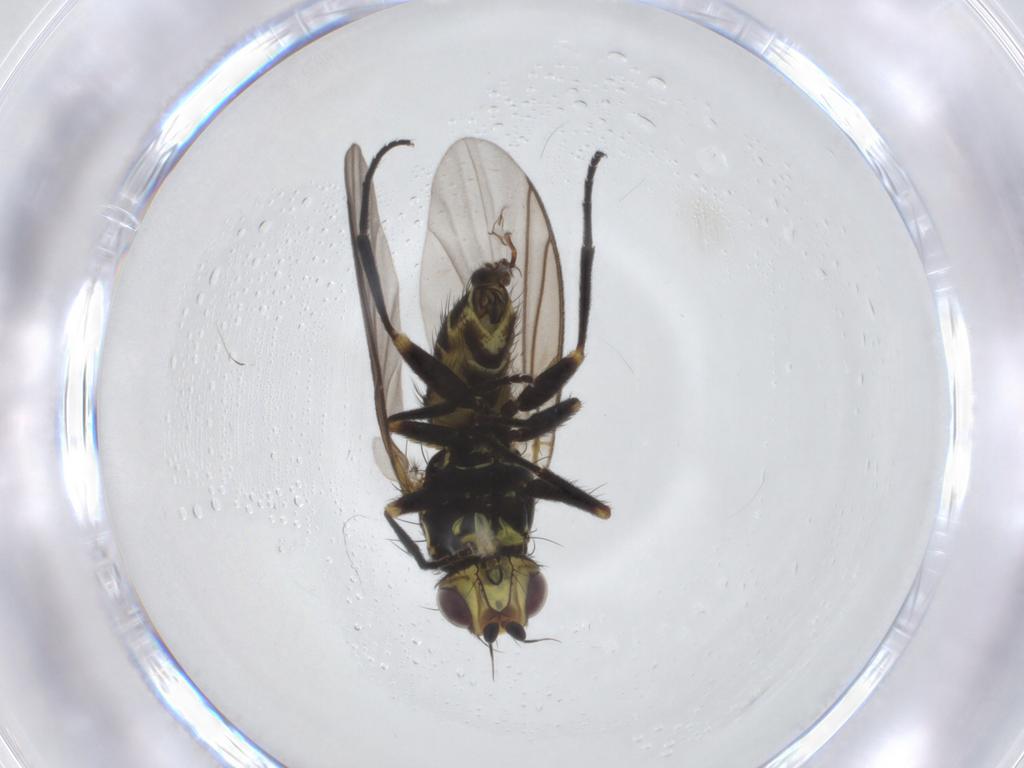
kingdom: Animalia
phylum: Arthropoda
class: Insecta
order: Diptera
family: Agromyzidae
